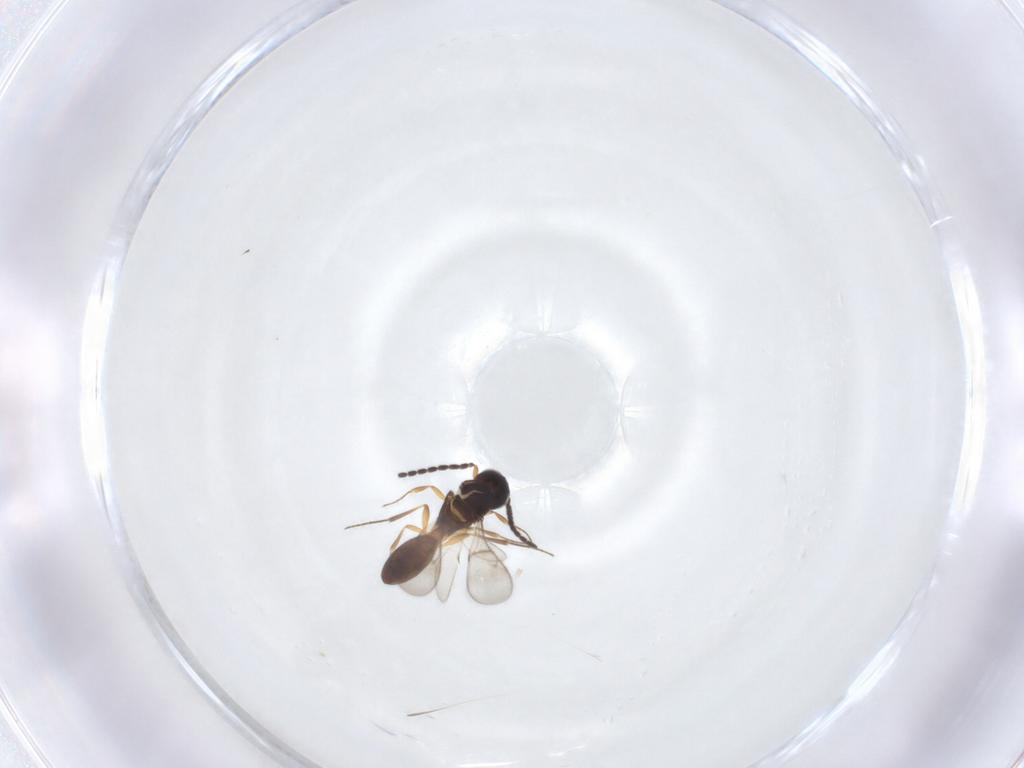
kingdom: Animalia
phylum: Arthropoda
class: Insecta
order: Hymenoptera
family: Scelionidae
